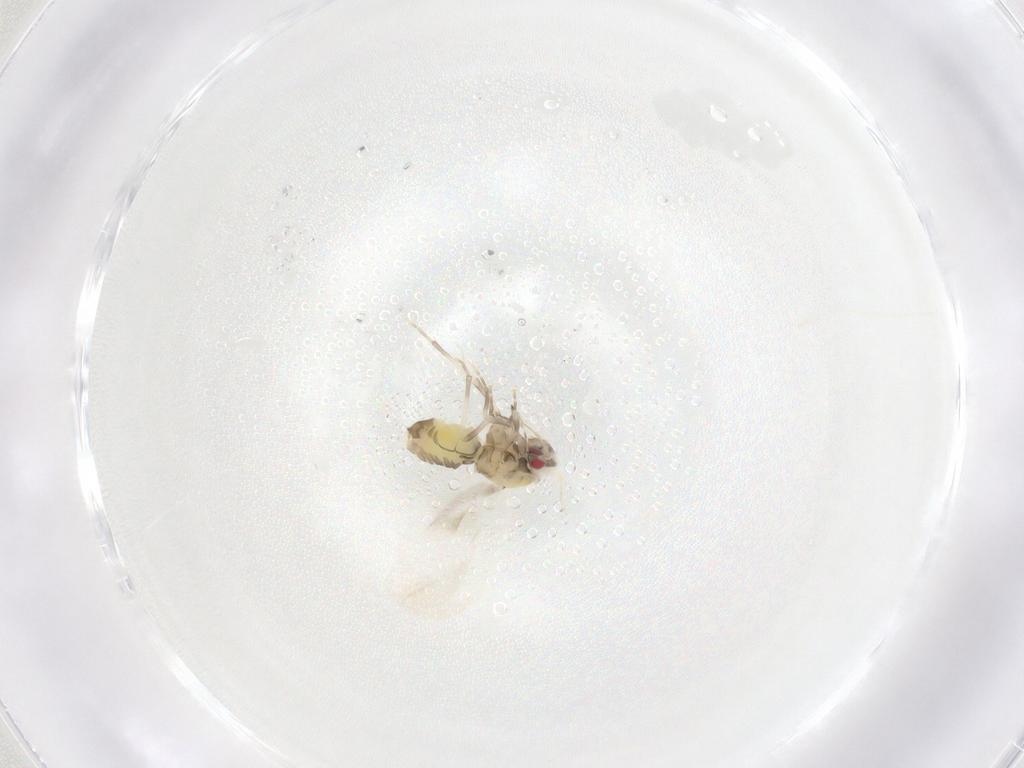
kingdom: Animalia
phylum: Arthropoda
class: Insecta
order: Hemiptera
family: Aleyrodidae
